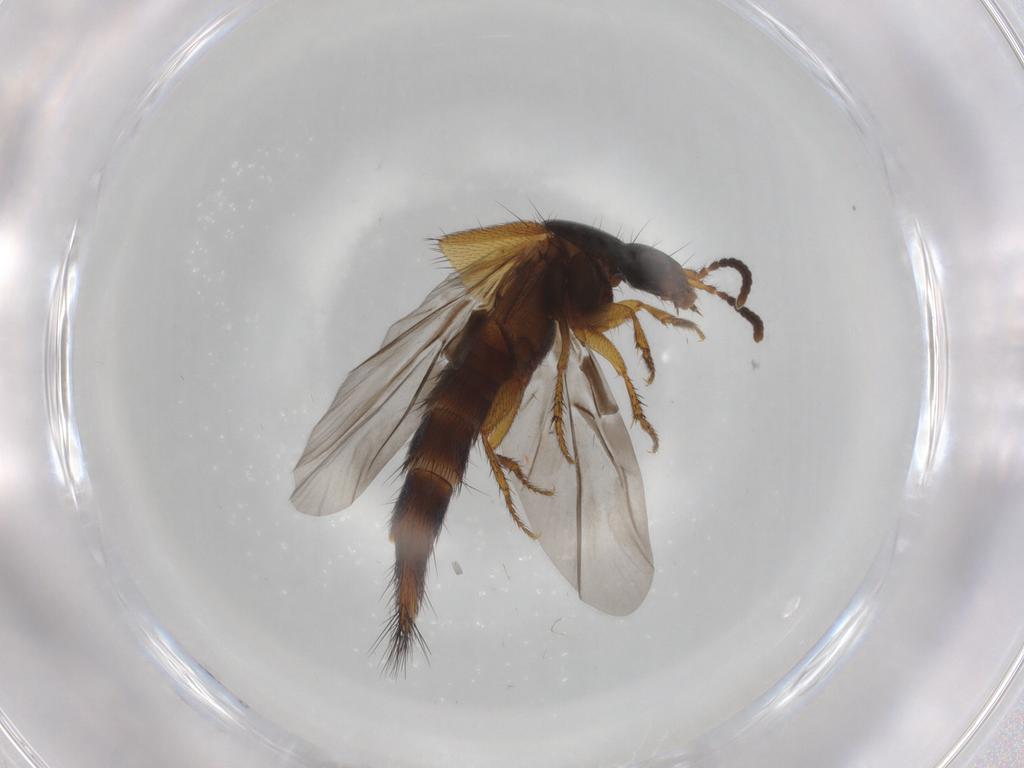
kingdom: Animalia
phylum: Arthropoda
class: Insecta
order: Coleoptera
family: Staphylinidae
